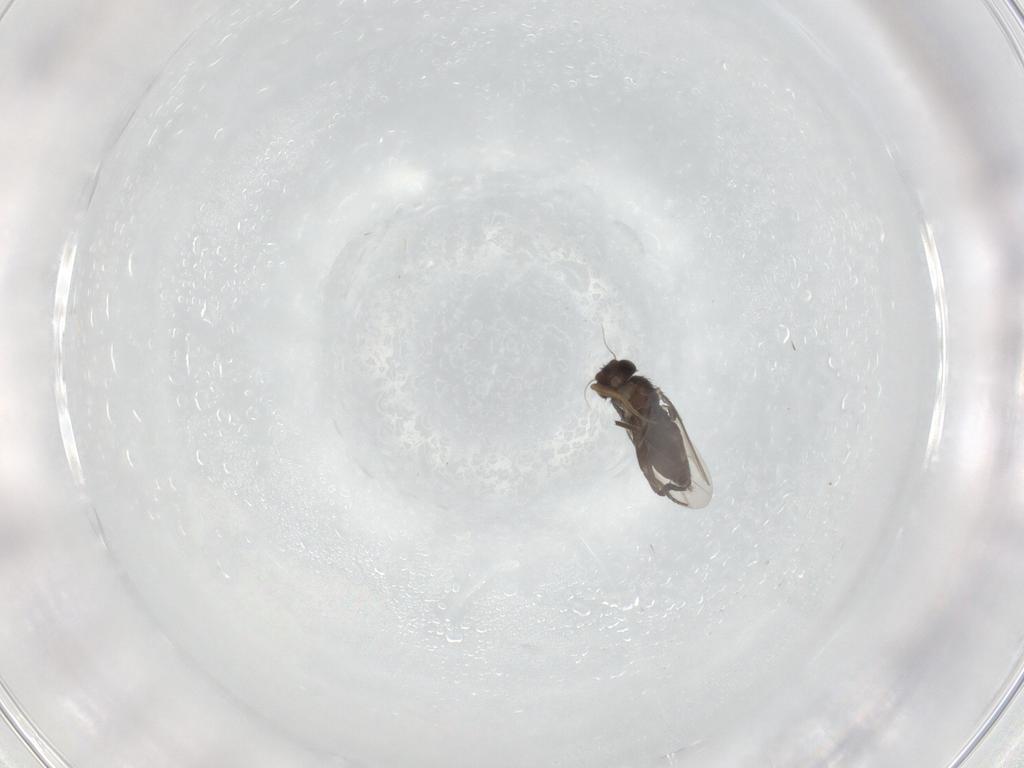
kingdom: Animalia
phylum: Arthropoda
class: Insecta
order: Diptera
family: Phoridae
